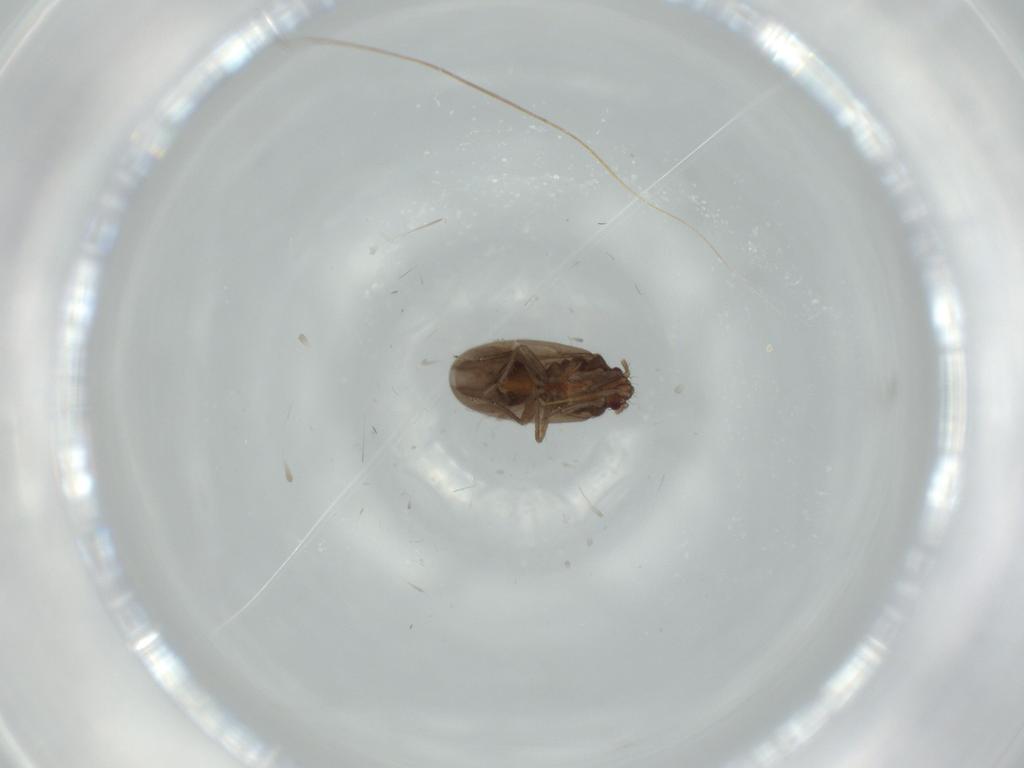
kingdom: Animalia
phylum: Arthropoda
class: Insecta
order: Hemiptera
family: Ceratocombidae
